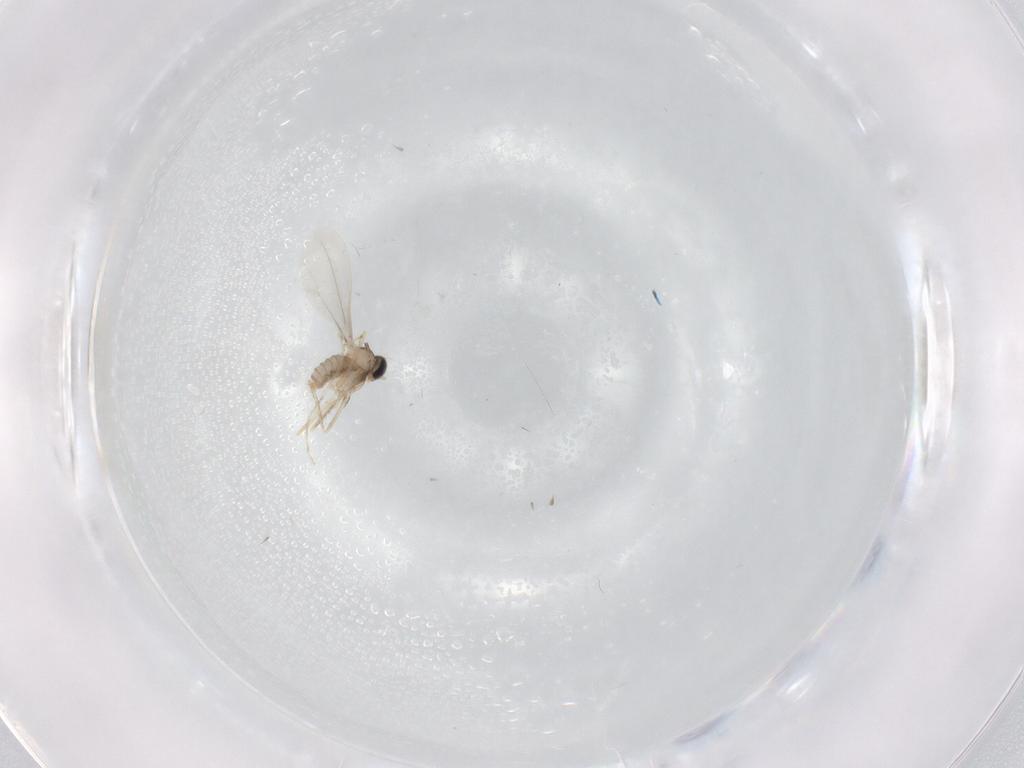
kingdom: Animalia
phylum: Arthropoda
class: Insecta
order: Diptera
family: Cecidomyiidae
